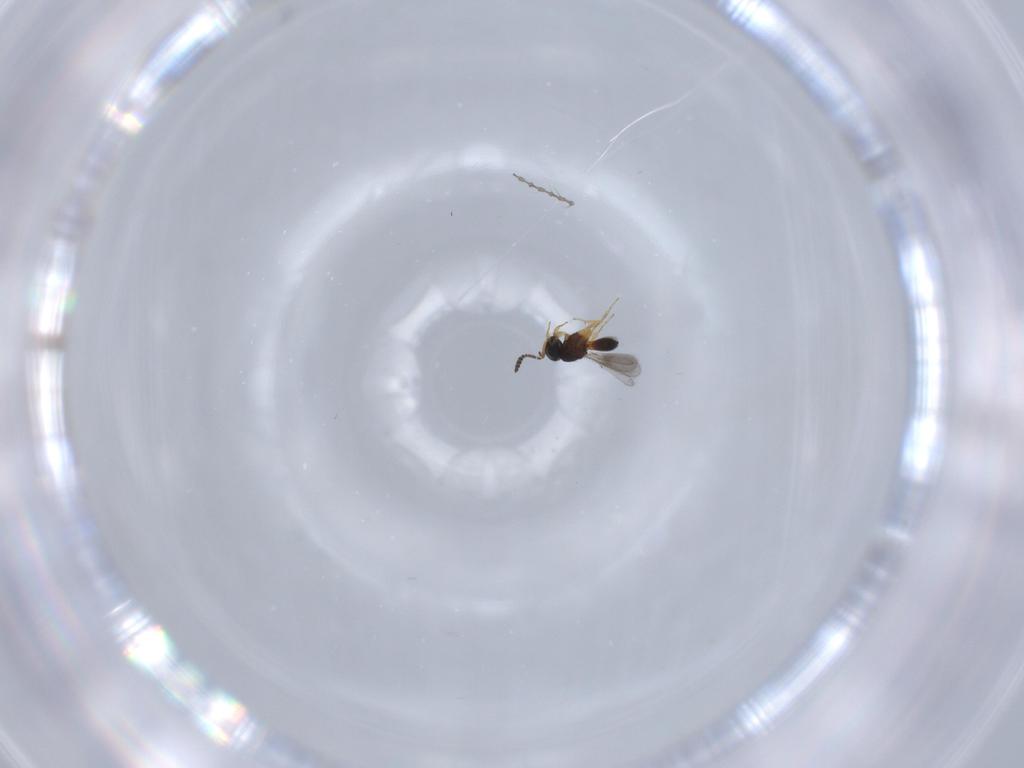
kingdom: Animalia
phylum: Arthropoda
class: Insecta
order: Hymenoptera
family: Scelionidae
